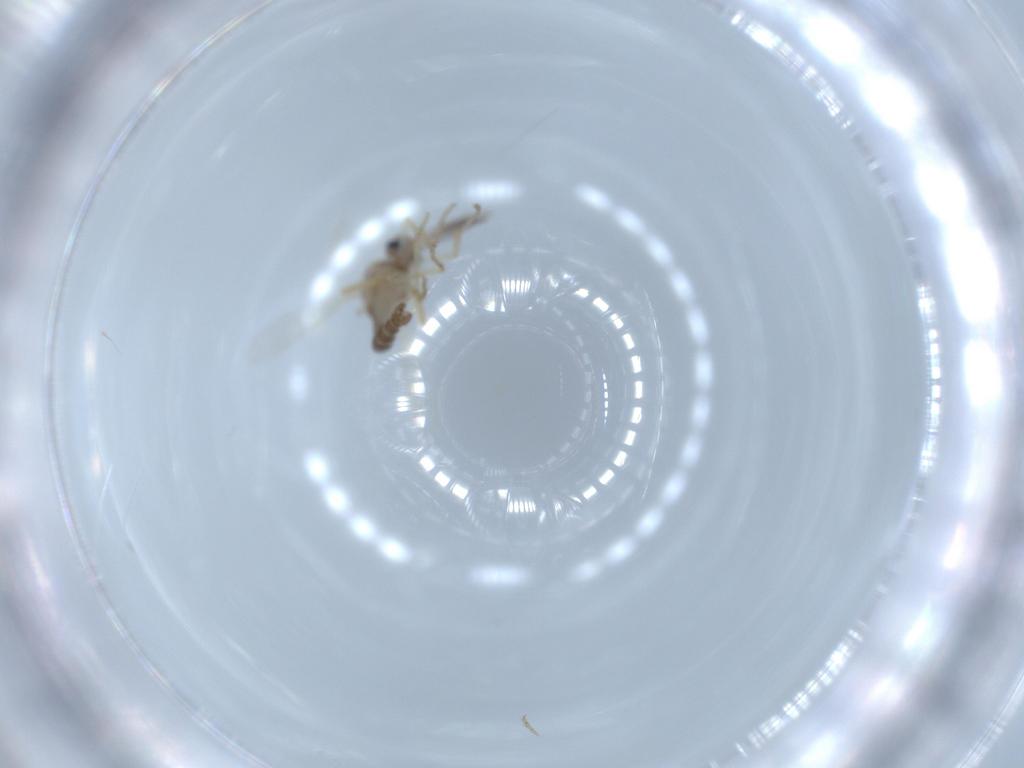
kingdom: Animalia
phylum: Arthropoda
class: Insecta
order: Diptera
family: Ceratopogonidae
